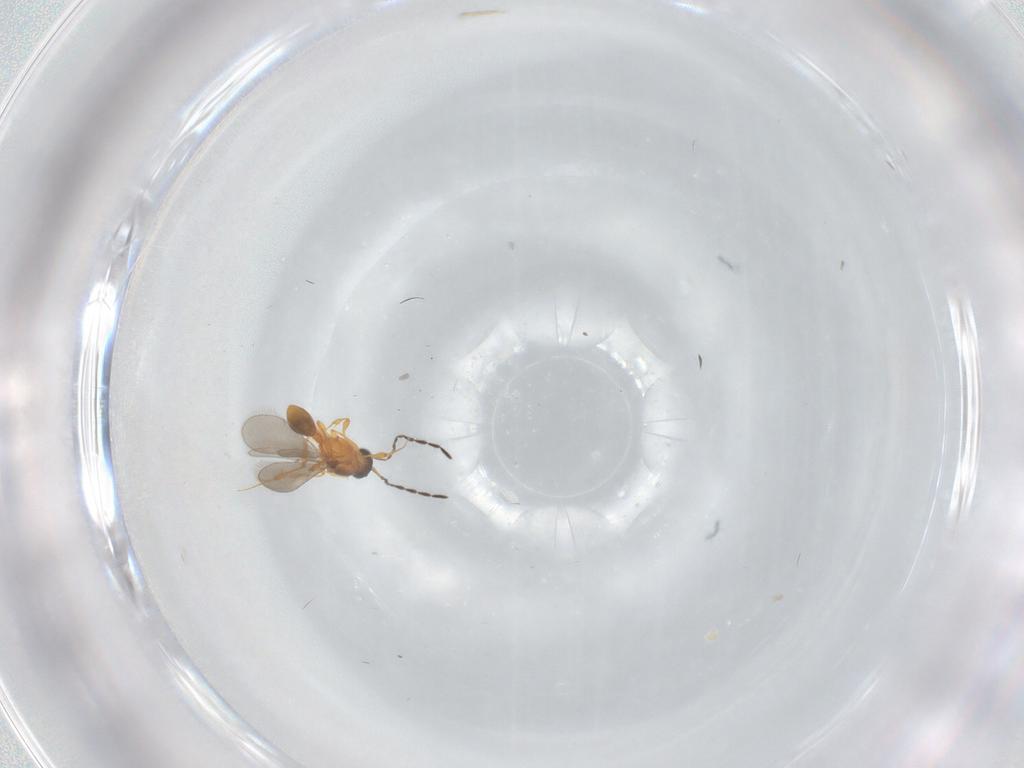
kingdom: Animalia
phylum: Arthropoda
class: Insecta
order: Hymenoptera
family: Platygastridae
